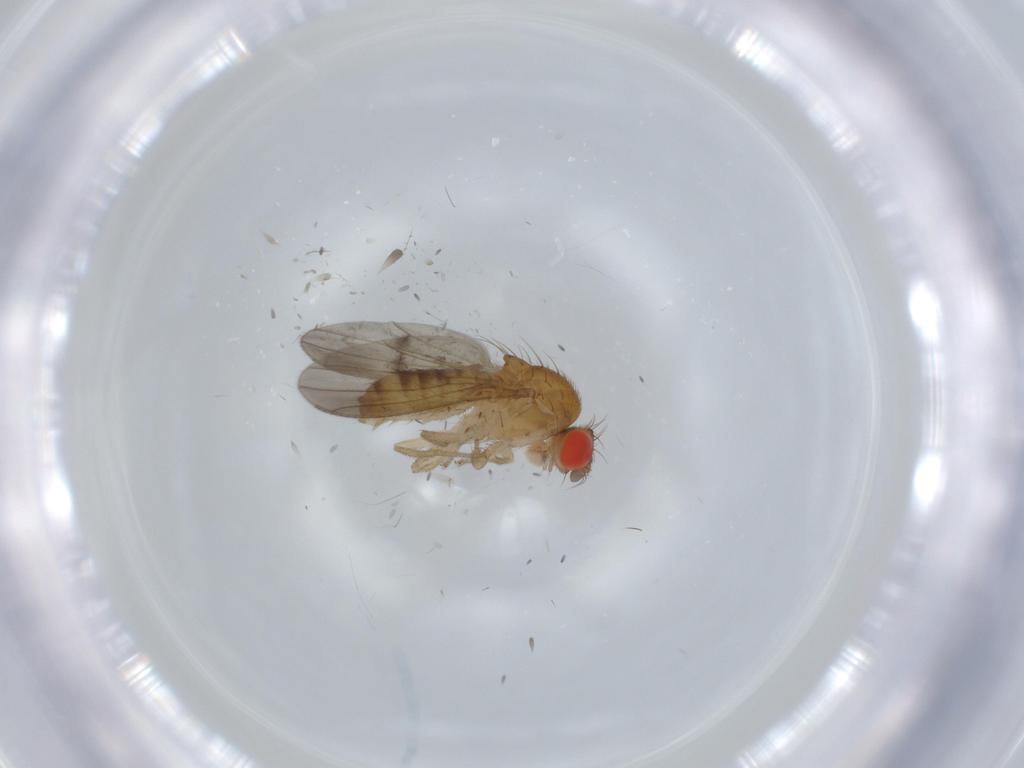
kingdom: Animalia
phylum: Arthropoda
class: Insecta
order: Diptera
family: Drosophilidae
